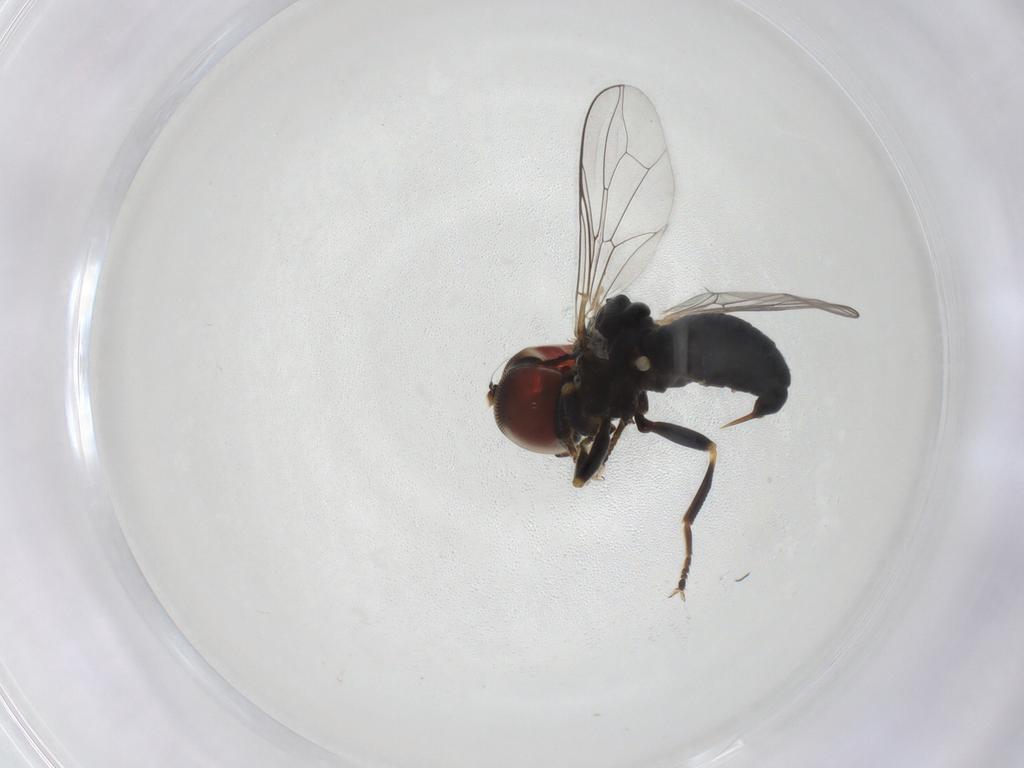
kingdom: Animalia
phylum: Arthropoda
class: Insecta
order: Diptera
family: Pipunculidae
